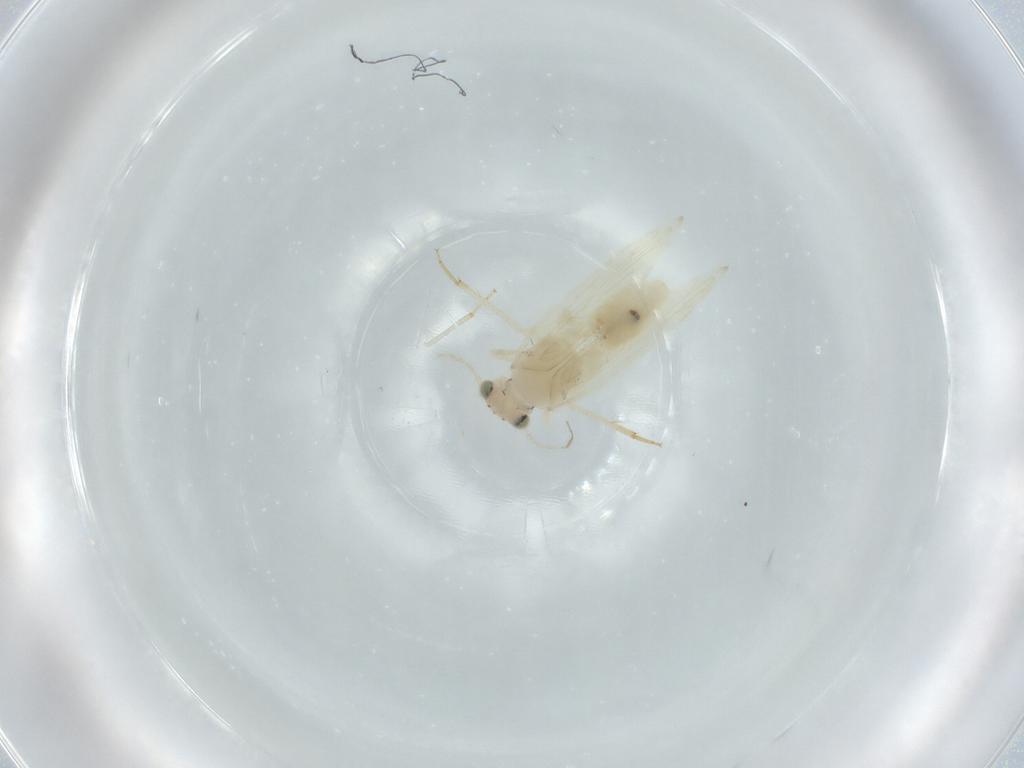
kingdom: Animalia
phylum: Arthropoda
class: Insecta
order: Psocodea
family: Lepidopsocidae
